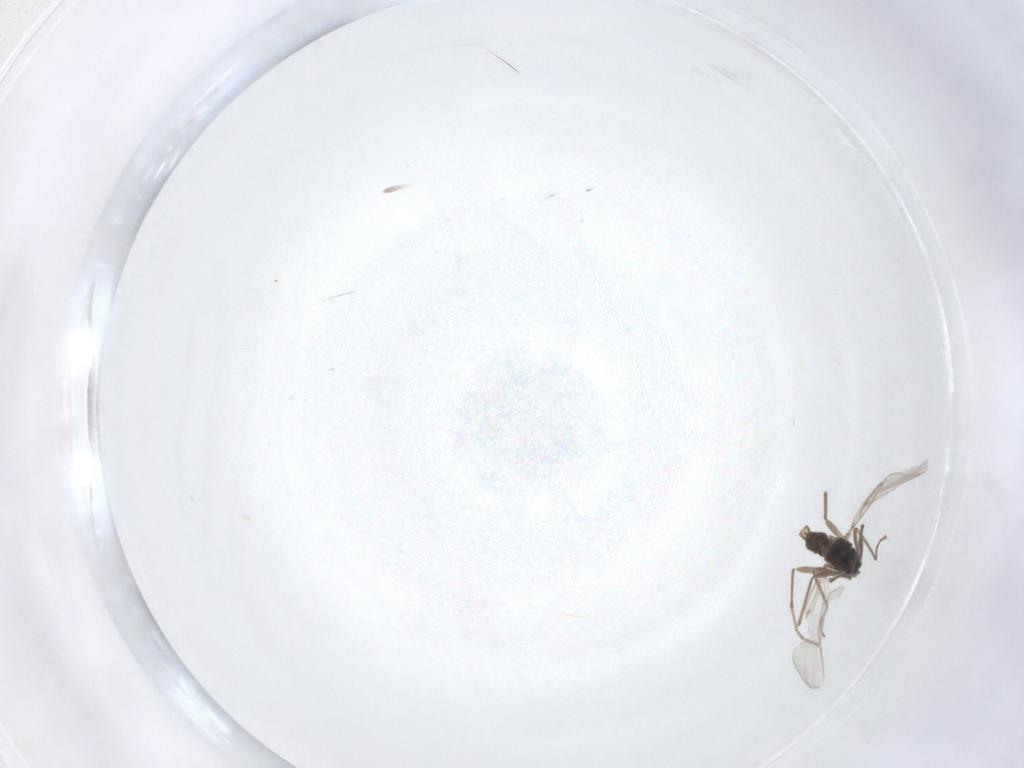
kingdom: Animalia
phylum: Arthropoda
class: Insecta
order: Diptera
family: Cecidomyiidae
